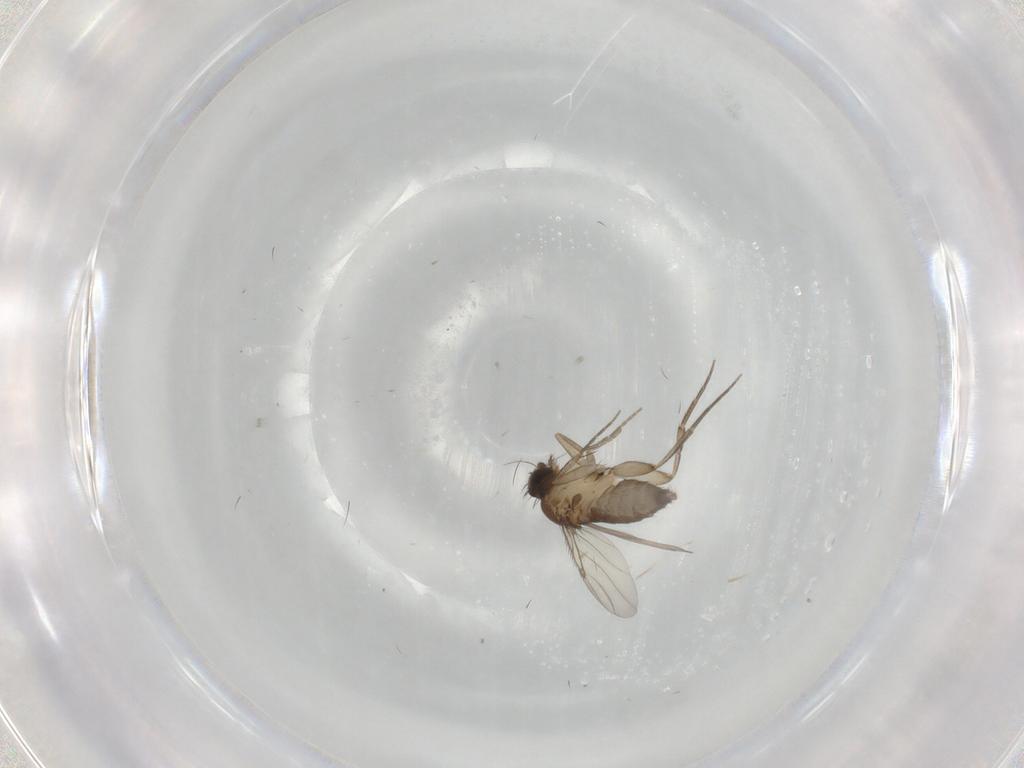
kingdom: Animalia
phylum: Arthropoda
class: Insecta
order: Diptera
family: Phoridae
